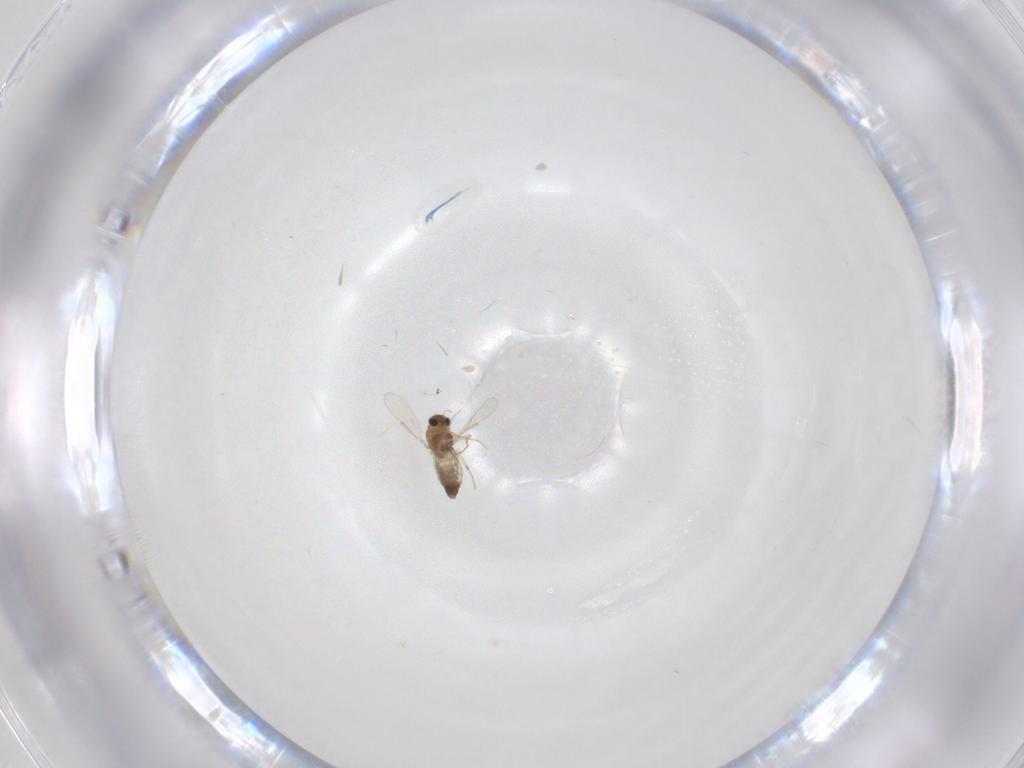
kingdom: Animalia
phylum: Arthropoda
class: Insecta
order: Diptera
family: Chironomidae
